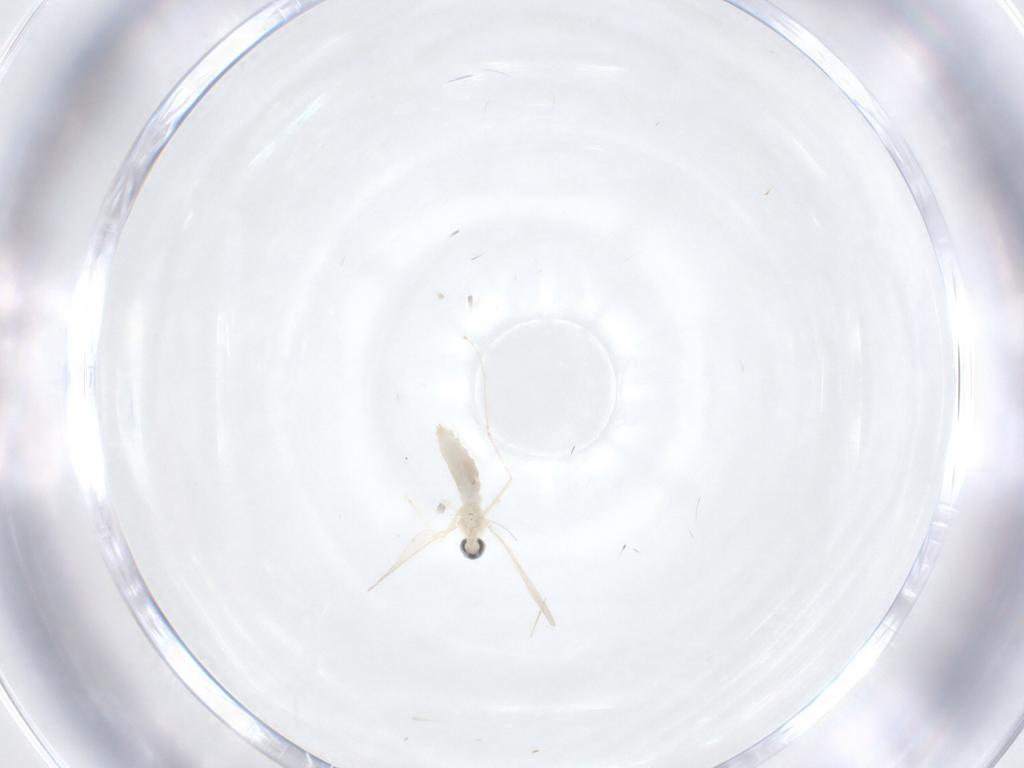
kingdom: Animalia
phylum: Arthropoda
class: Insecta
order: Diptera
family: Cecidomyiidae
